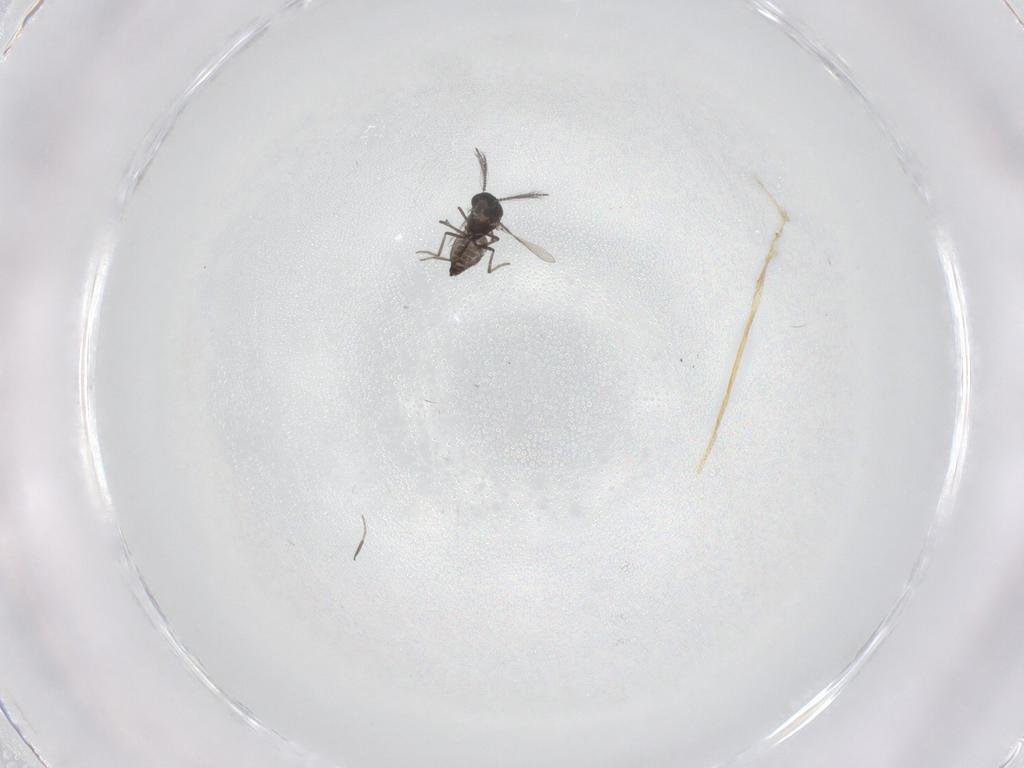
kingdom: Animalia
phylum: Arthropoda
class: Insecta
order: Diptera
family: Ceratopogonidae
